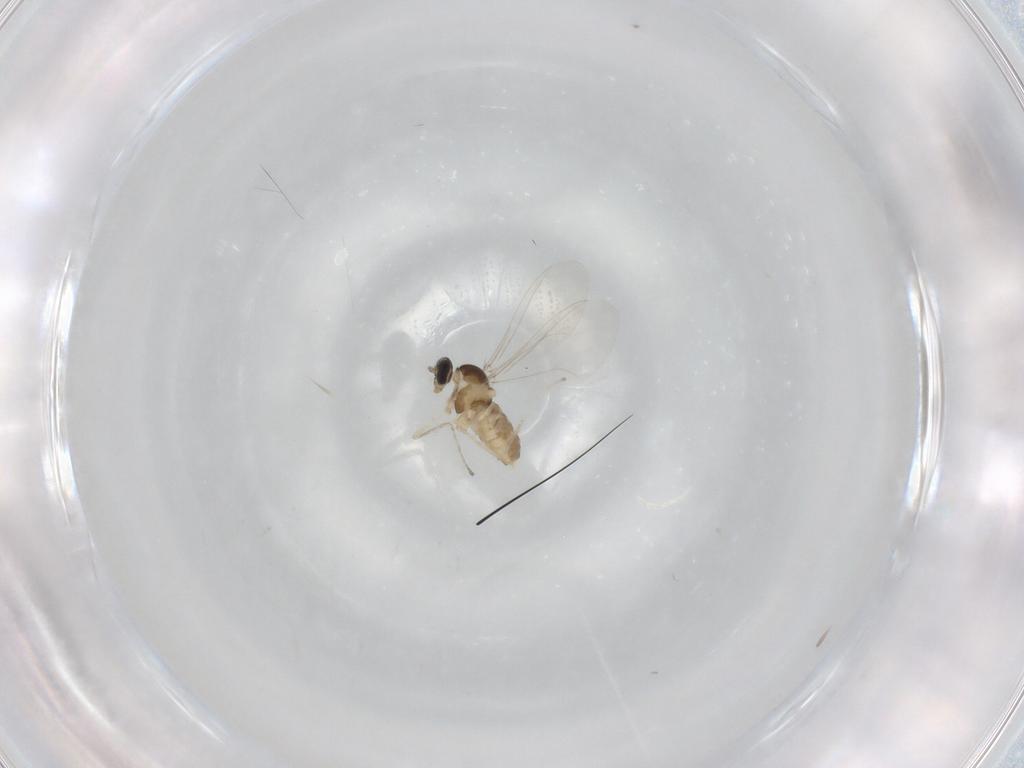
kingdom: Animalia
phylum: Arthropoda
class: Insecta
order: Diptera
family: Cecidomyiidae
